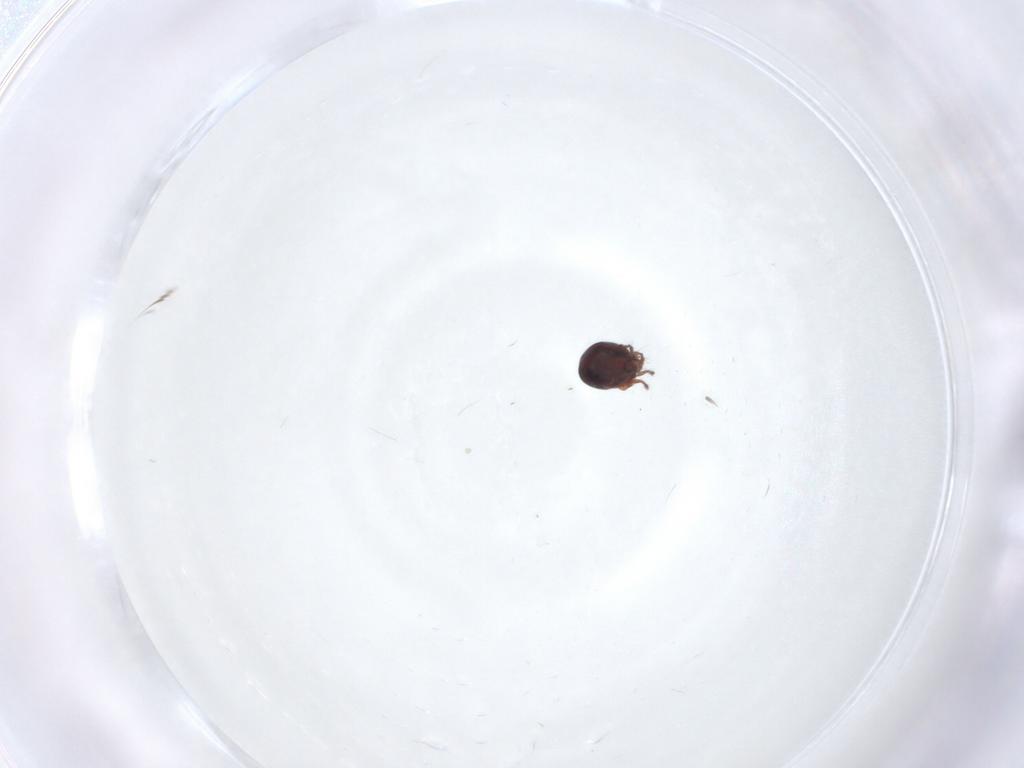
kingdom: Animalia
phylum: Arthropoda
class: Arachnida
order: Sarcoptiformes
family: Ceratozetidae
